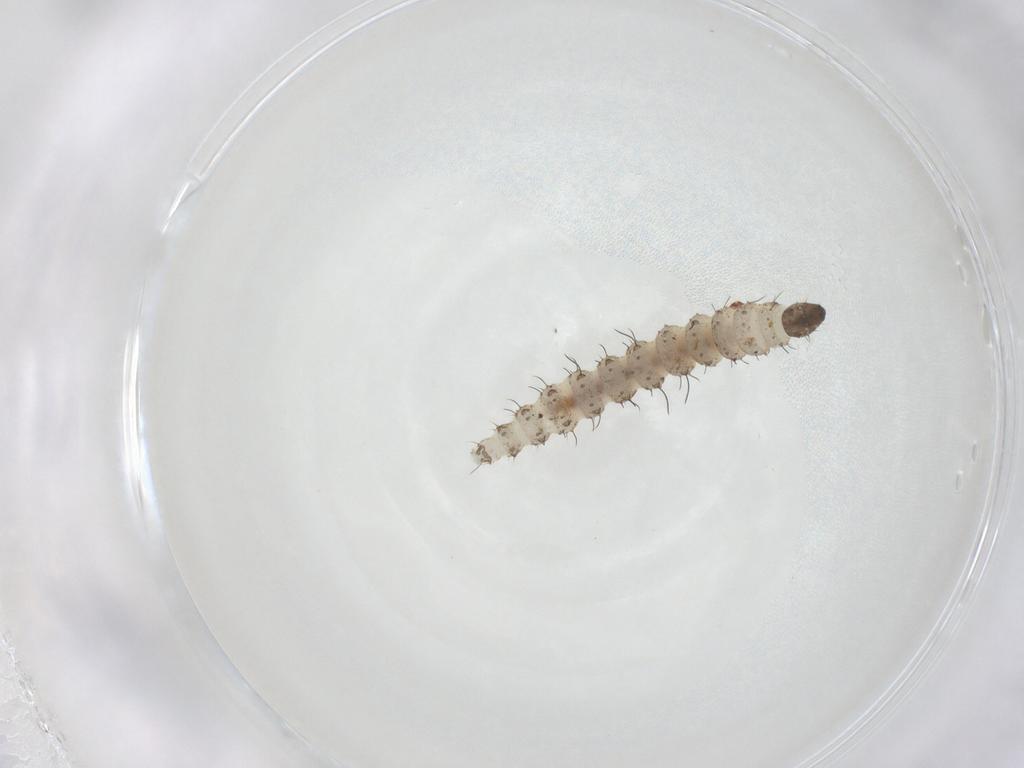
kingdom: Animalia
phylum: Arthropoda
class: Insecta
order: Diptera
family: Ceratopogonidae
